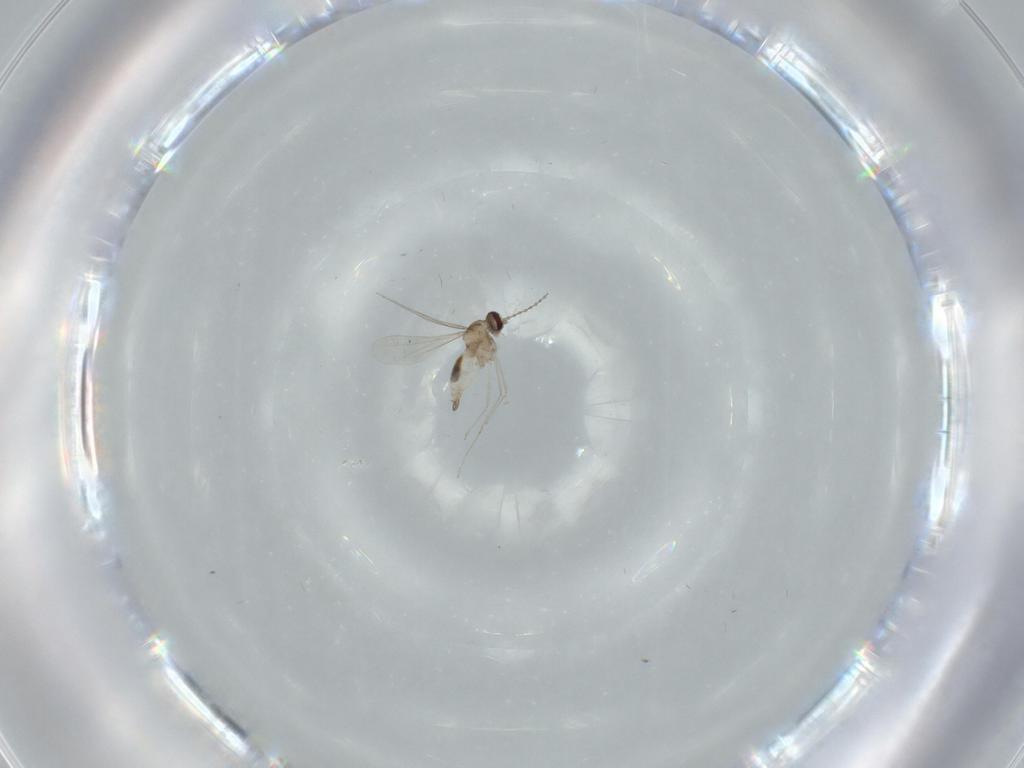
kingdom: Animalia
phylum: Arthropoda
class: Insecta
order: Diptera
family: Cecidomyiidae
